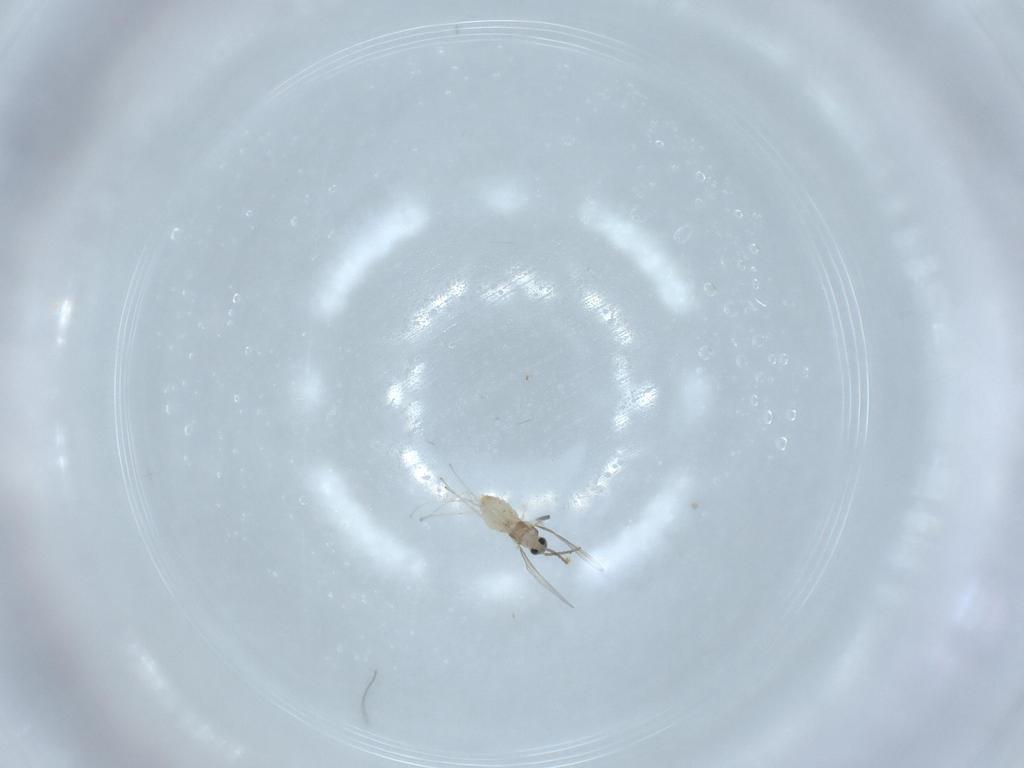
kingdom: Animalia
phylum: Arthropoda
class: Insecta
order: Diptera
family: Cecidomyiidae
